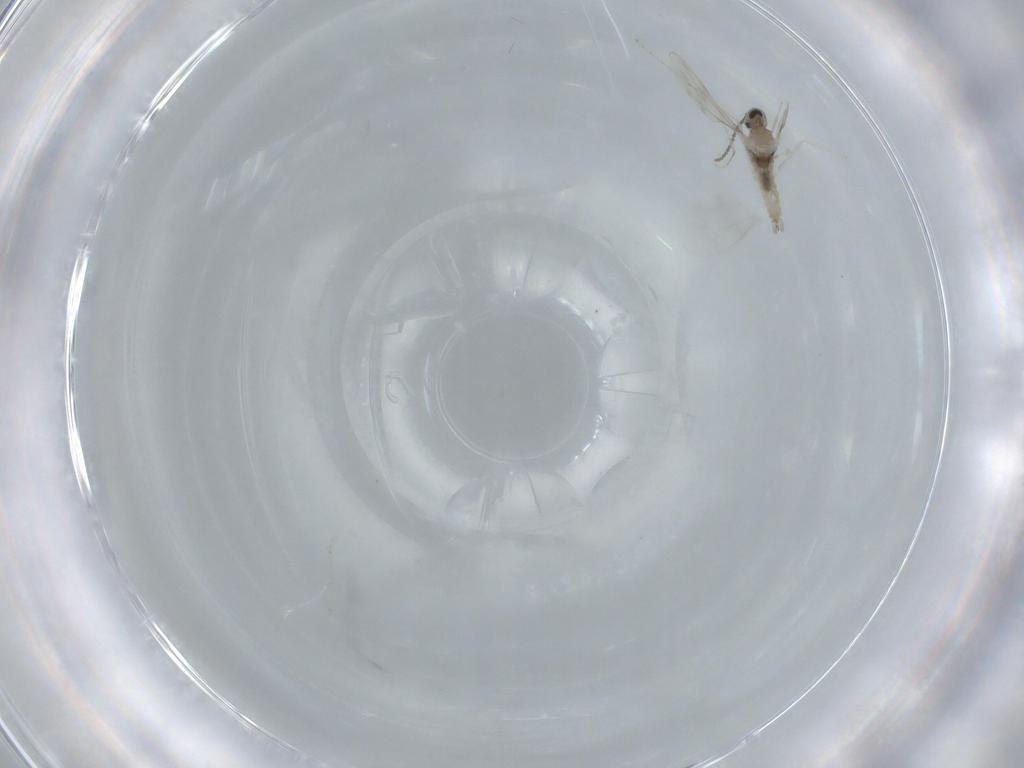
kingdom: Animalia
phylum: Arthropoda
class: Insecta
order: Diptera
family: Cecidomyiidae
